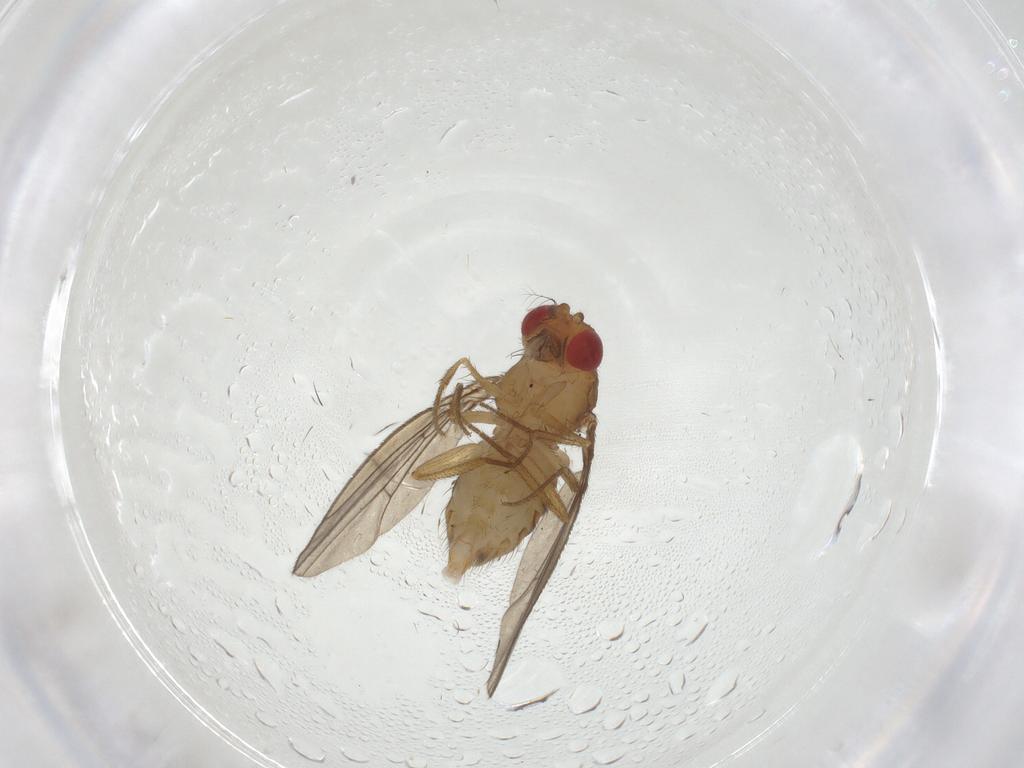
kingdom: Animalia
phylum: Arthropoda
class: Insecta
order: Diptera
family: Drosophilidae
